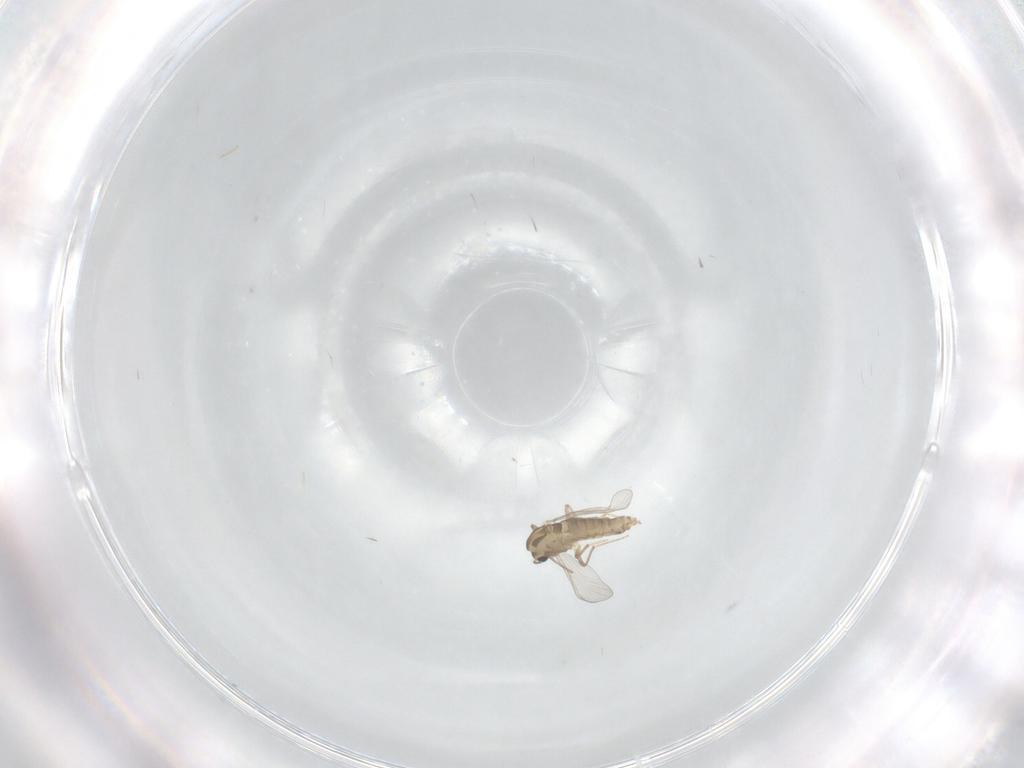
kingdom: Animalia
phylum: Arthropoda
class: Insecta
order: Diptera
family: Chironomidae
